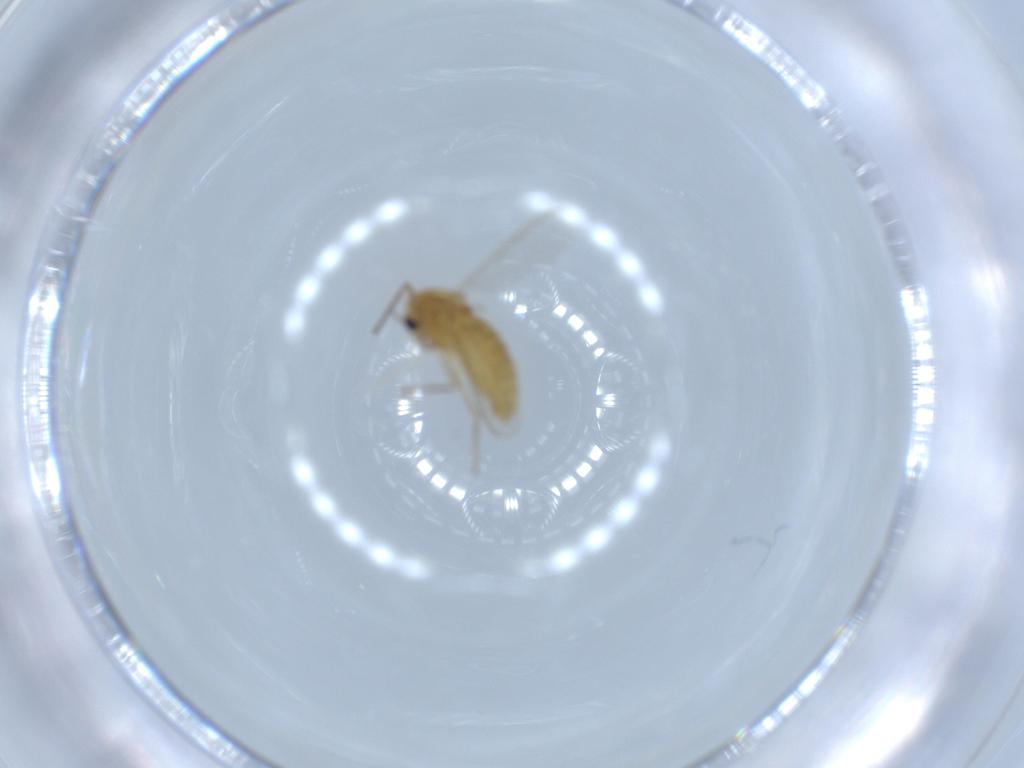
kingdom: Animalia
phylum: Arthropoda
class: Insecta
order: Diptera
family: Chironomidae
